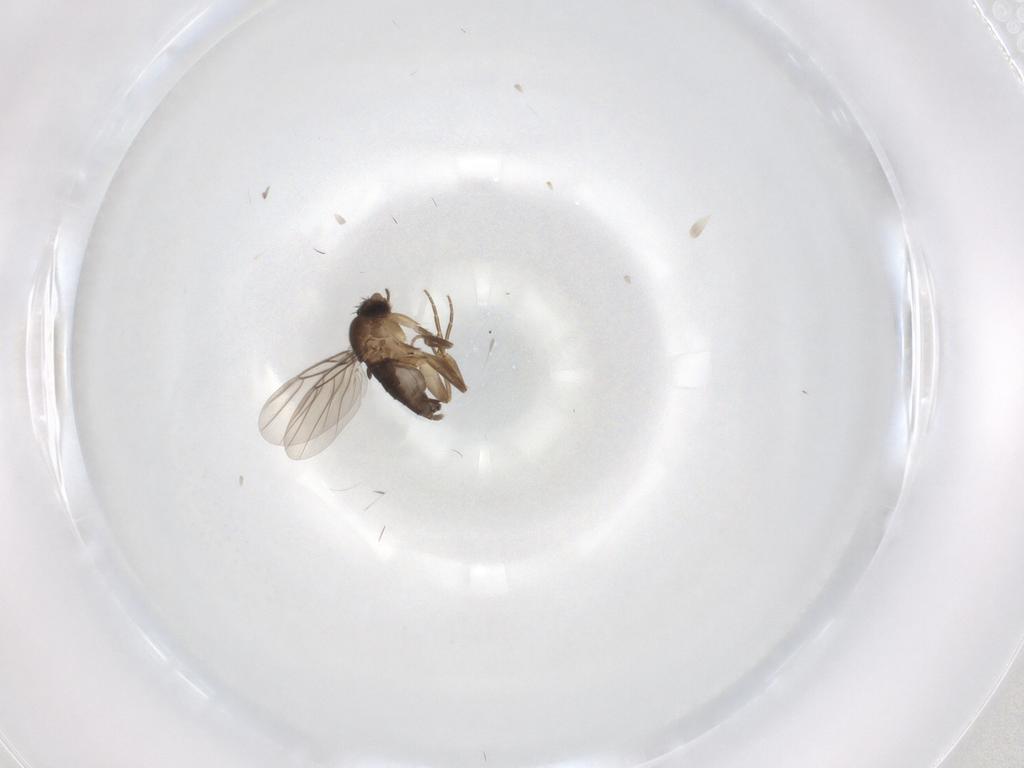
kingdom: Animalia
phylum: Arthropoda
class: Insecta
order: Diptera
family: Phoridae
